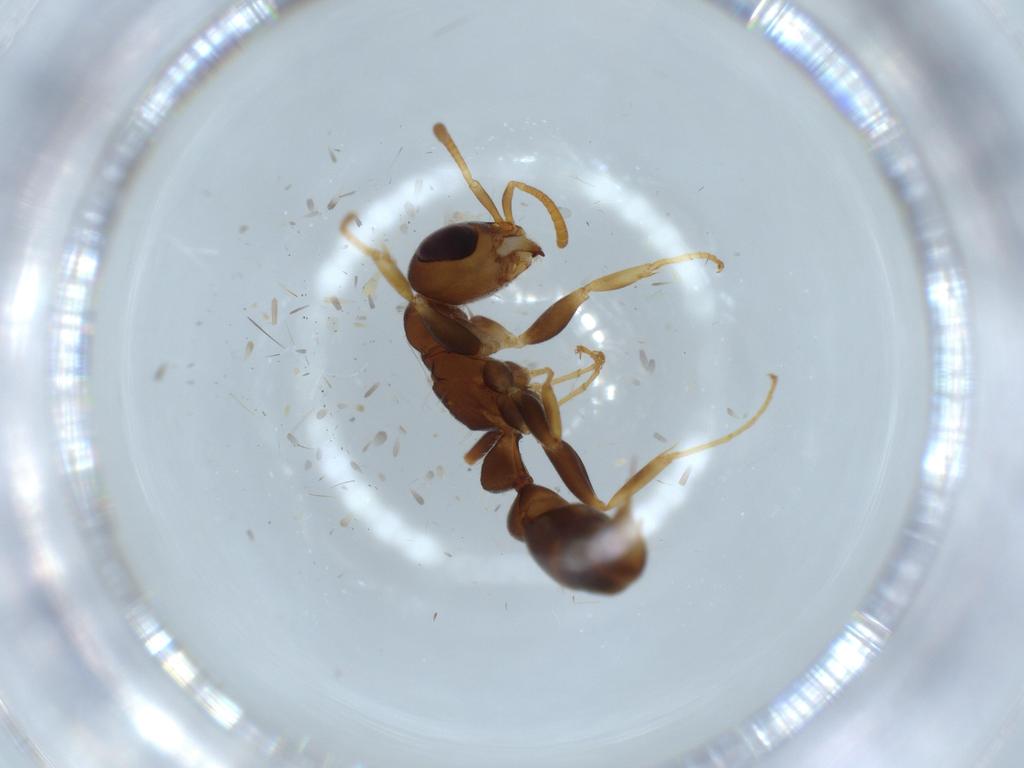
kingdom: Animalia
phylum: Arthropoda
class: Insecta
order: Hymenoptera
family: Formicidae
